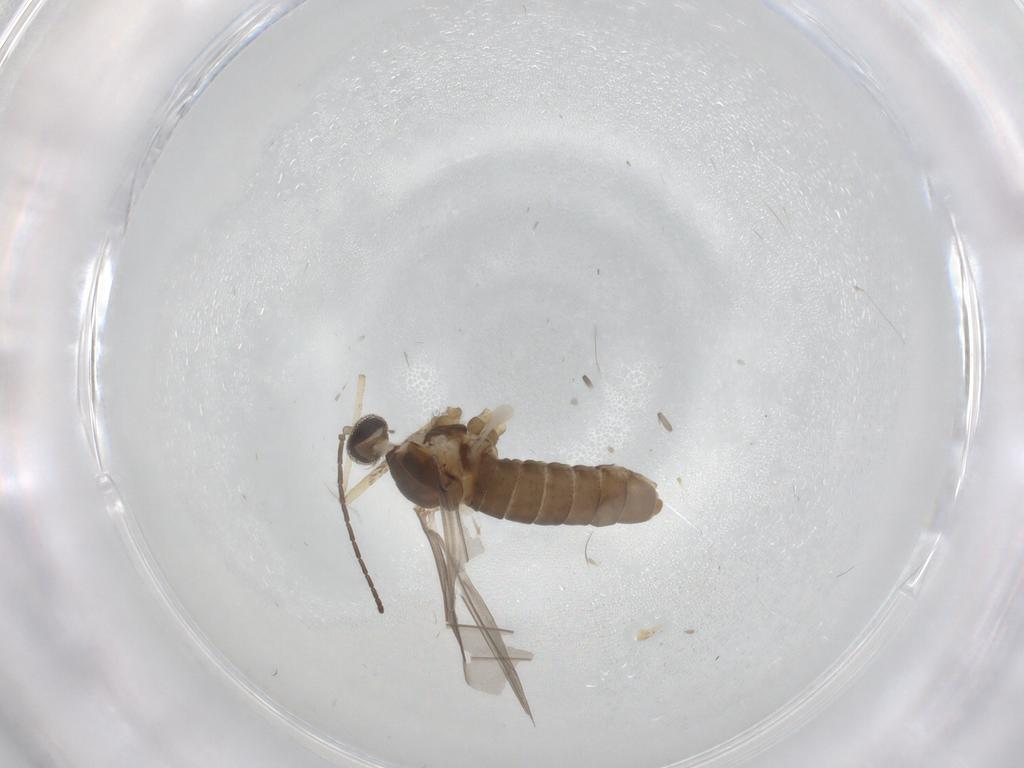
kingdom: Animalia
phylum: Arthropoda
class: Insecta
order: Diptera
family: Cecidomyiidae
